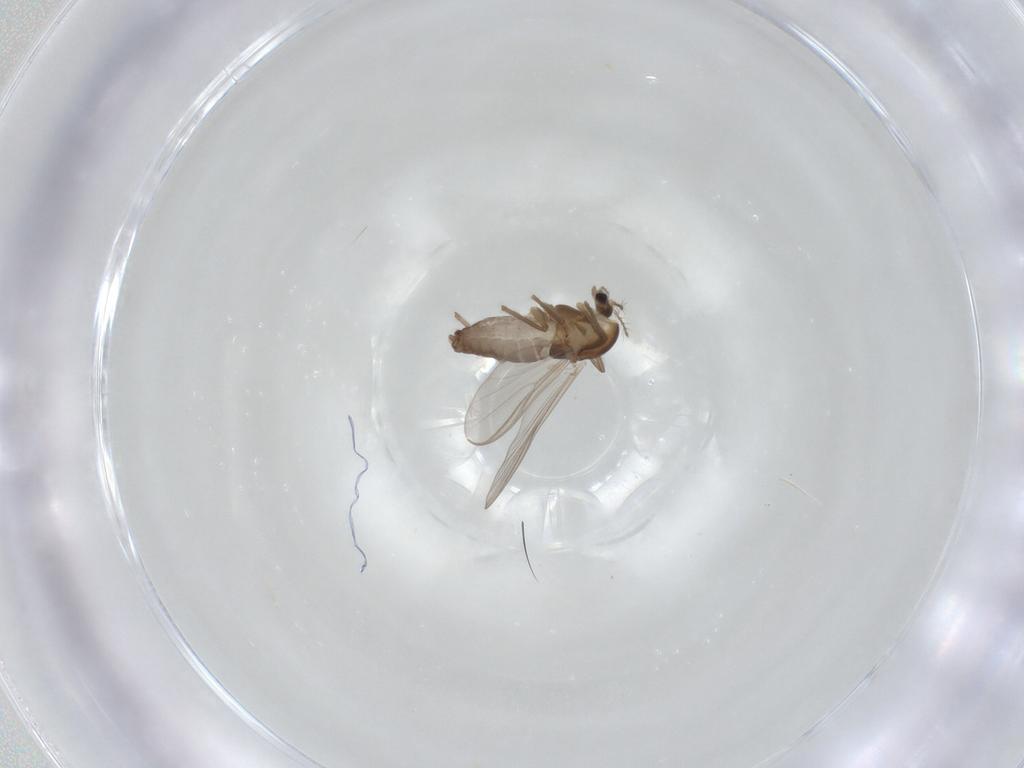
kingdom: Animalia
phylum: Arthropoda
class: Insecta
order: Diptera
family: Chironomidae
